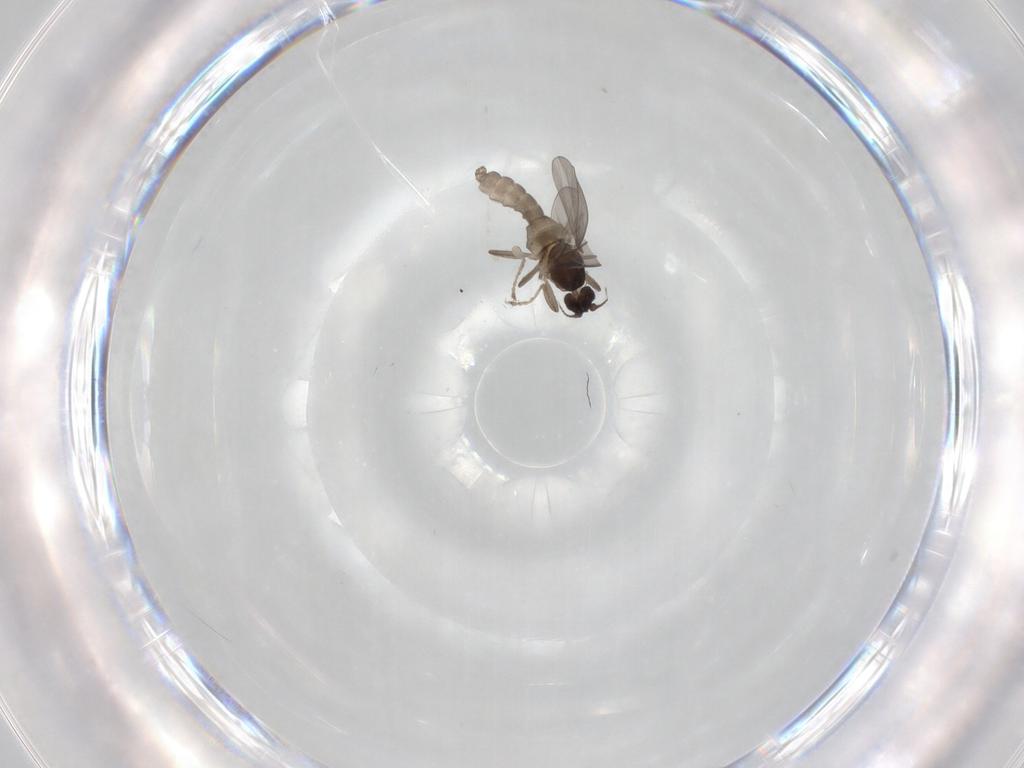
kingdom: Animalia
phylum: Arthropoda
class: Insecta
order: Diptera
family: Cecidomyiidae
